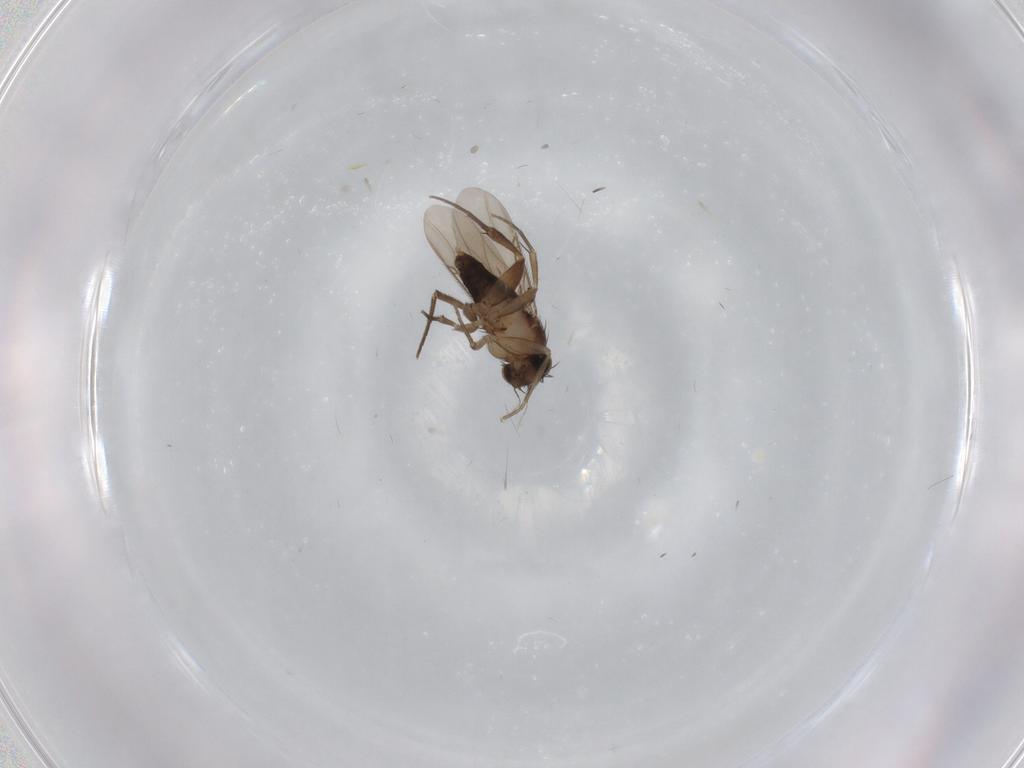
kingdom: Animalia
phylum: Arthropoda
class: Insecta
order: Diptera
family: Phoridae
